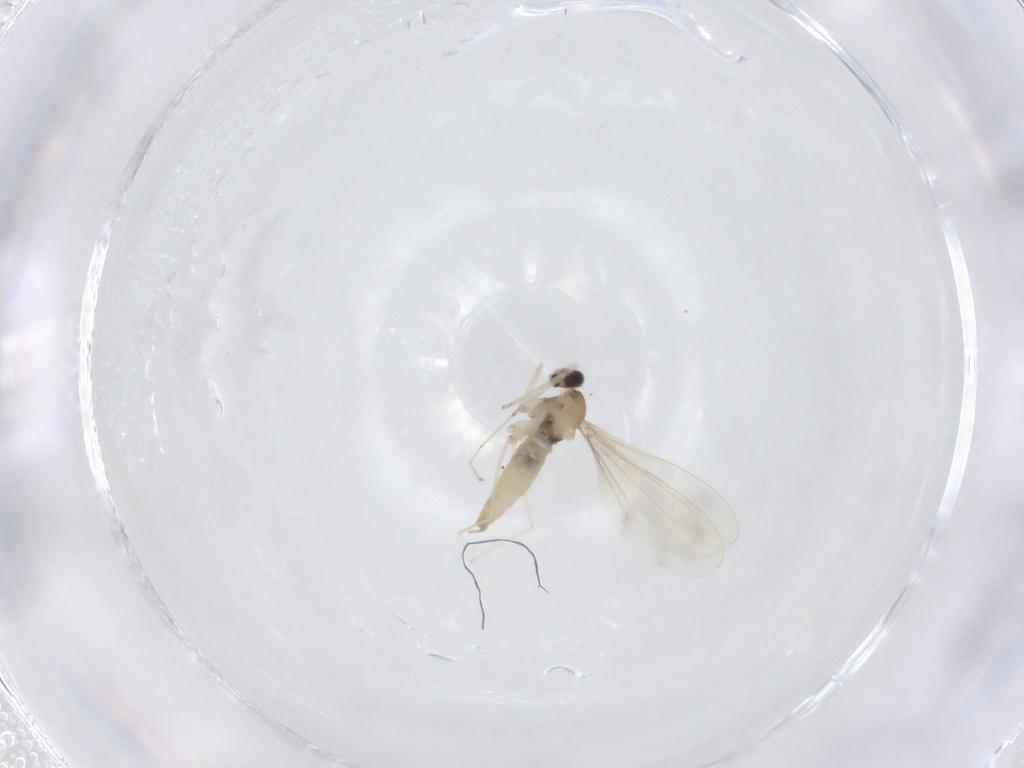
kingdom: Animalia
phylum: Arthropoda
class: Insecta
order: Diptera
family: Cecidomyiidae
